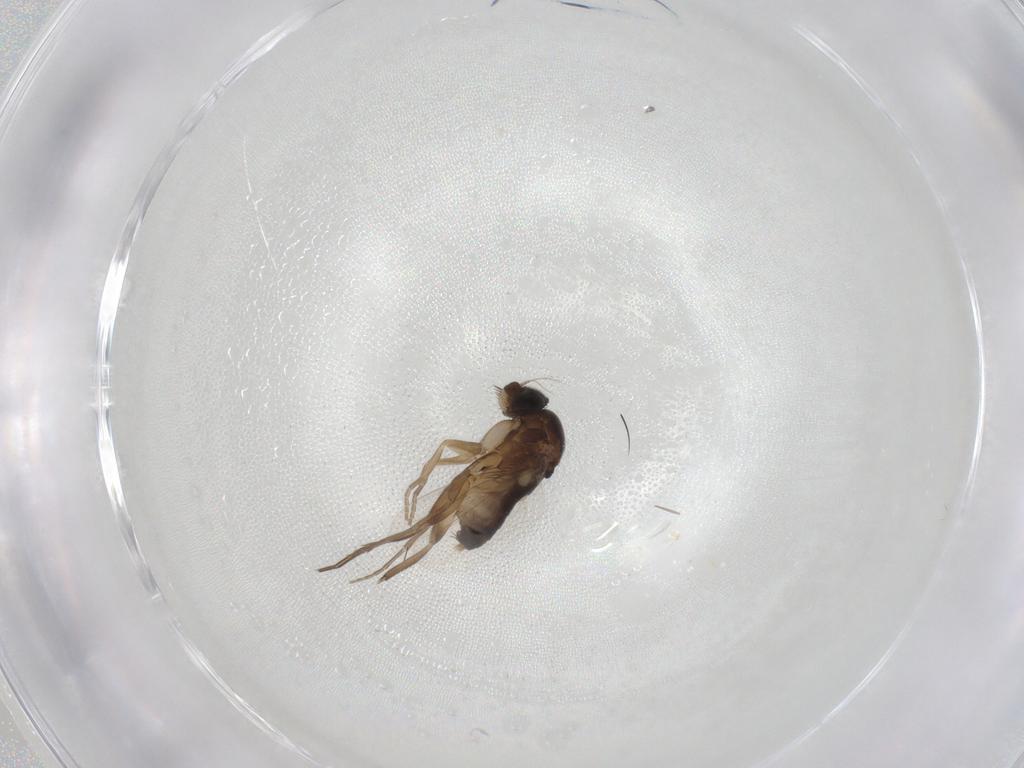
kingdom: Animalia
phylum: Arthropoda
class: Insecta
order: Diptera
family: Phoridae
